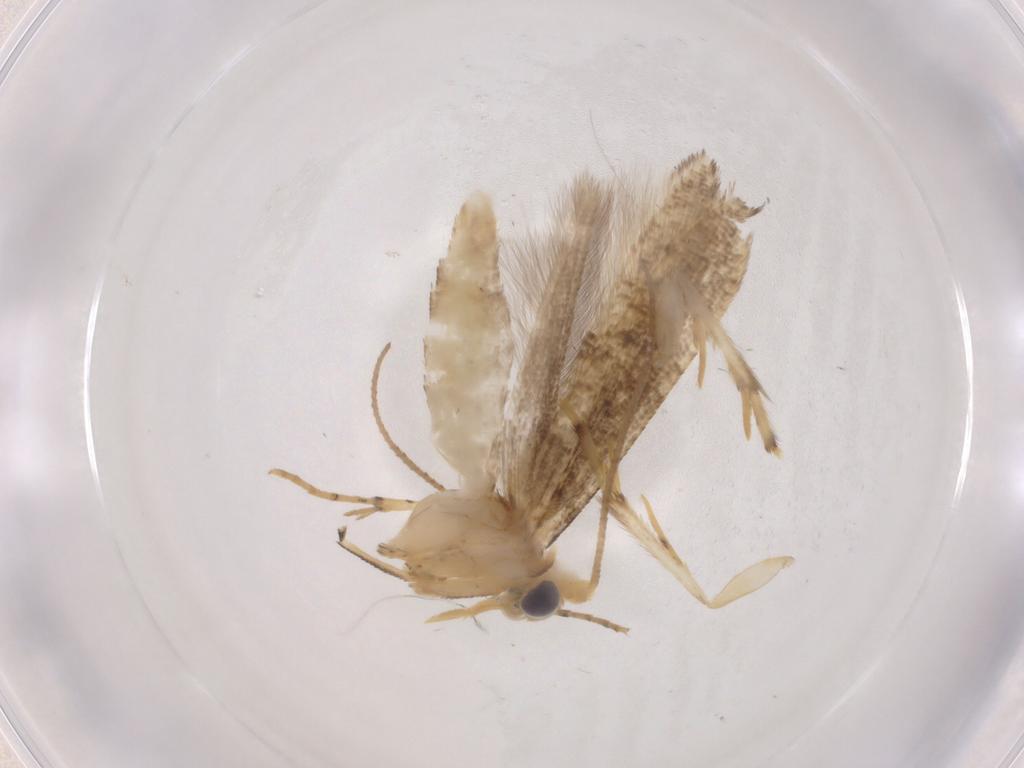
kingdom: Animalia
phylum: Arthropoda
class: Insecta
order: Lepidoptera
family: Argyresthiidae
